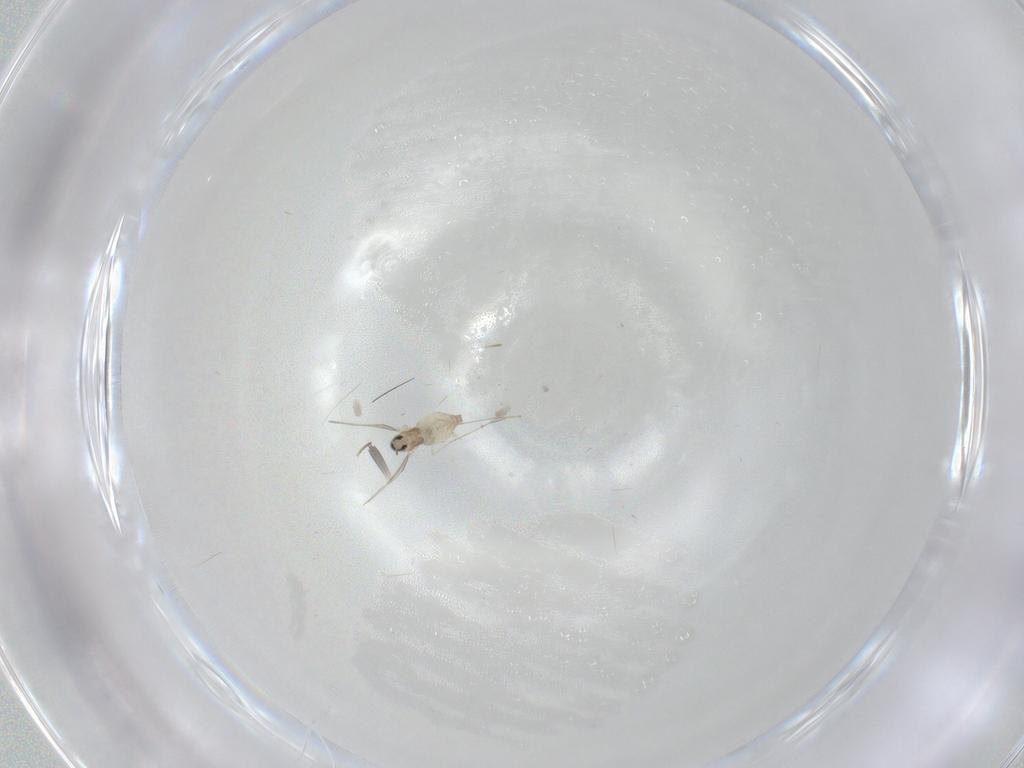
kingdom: Animalia
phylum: Arthropoda
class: Insecta
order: Diptera
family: Cecidomyiidae
